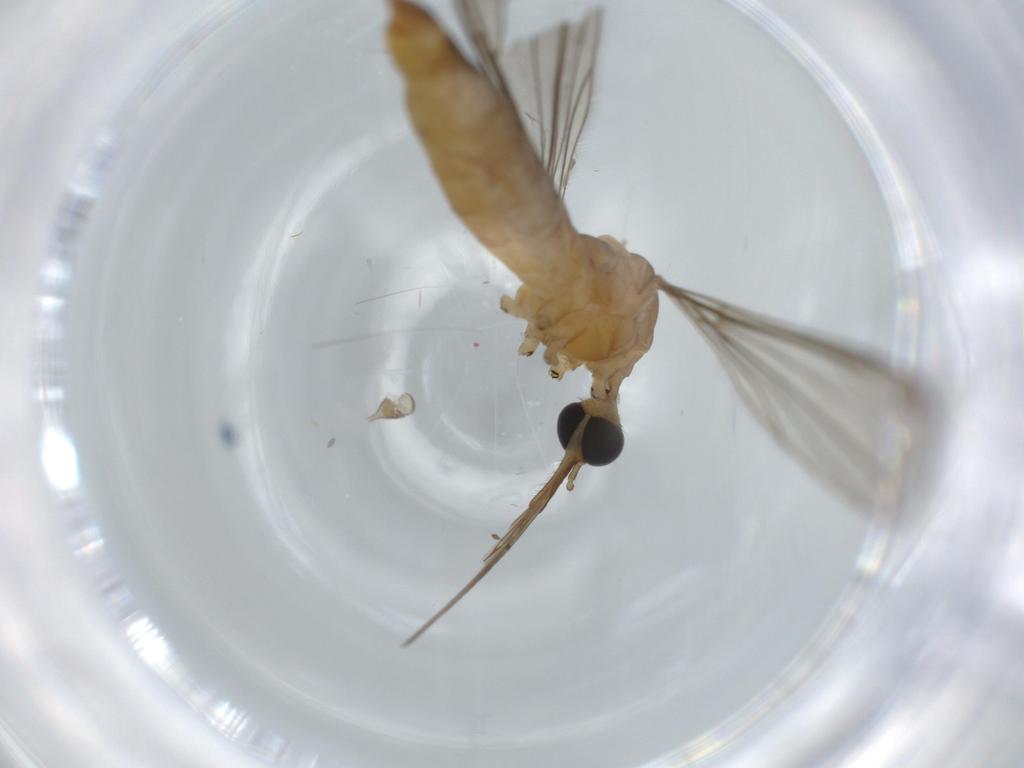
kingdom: Animalia
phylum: Arthropoda
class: Insecta
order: Diptera
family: Limoniidae
